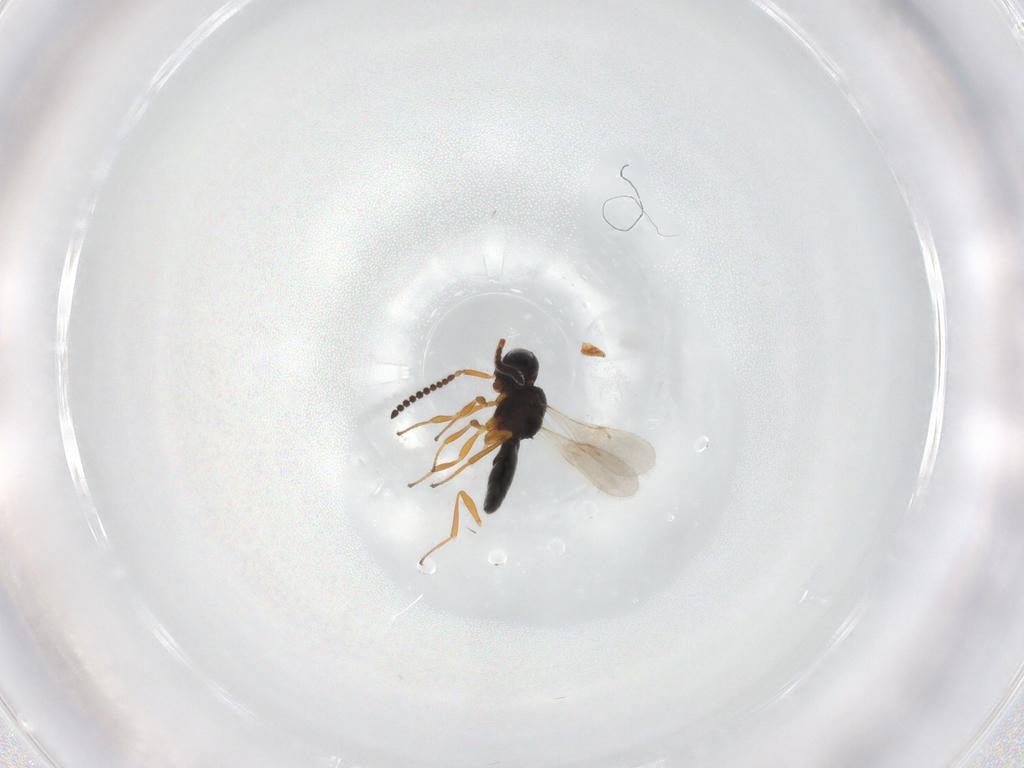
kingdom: Animalia
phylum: Arthropoda
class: Insecta
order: Hymenoptera
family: Scelionidae
